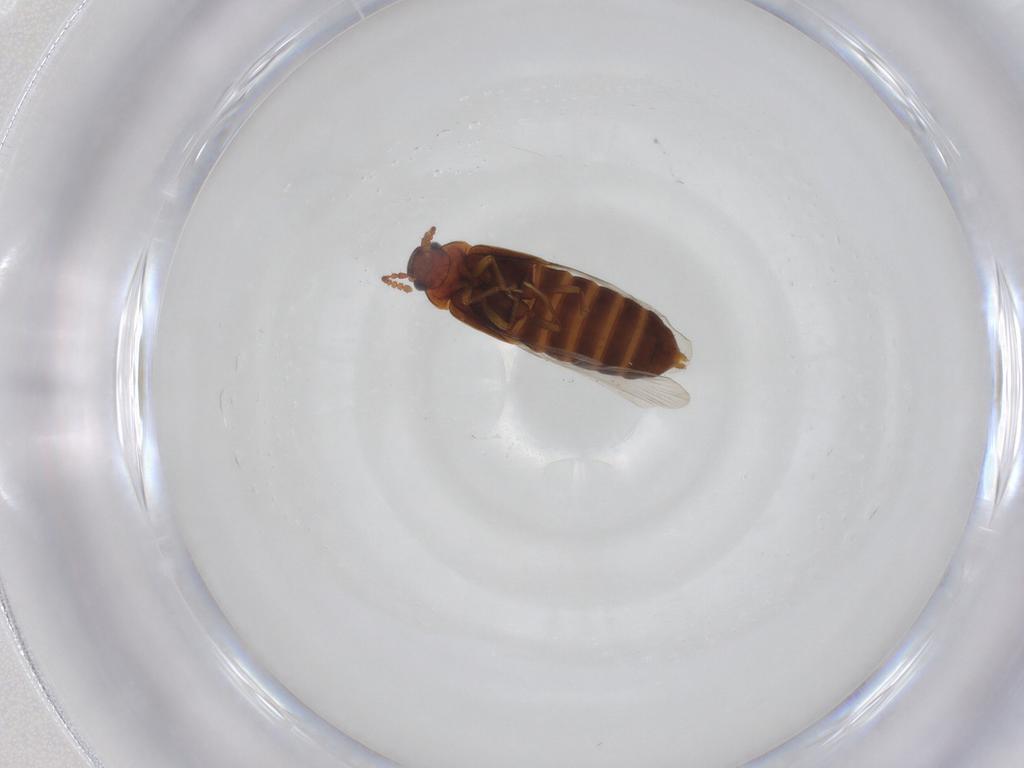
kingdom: Animalia
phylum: Arthropoda
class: Insecta
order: Coleoptera
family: Staphylinidae
